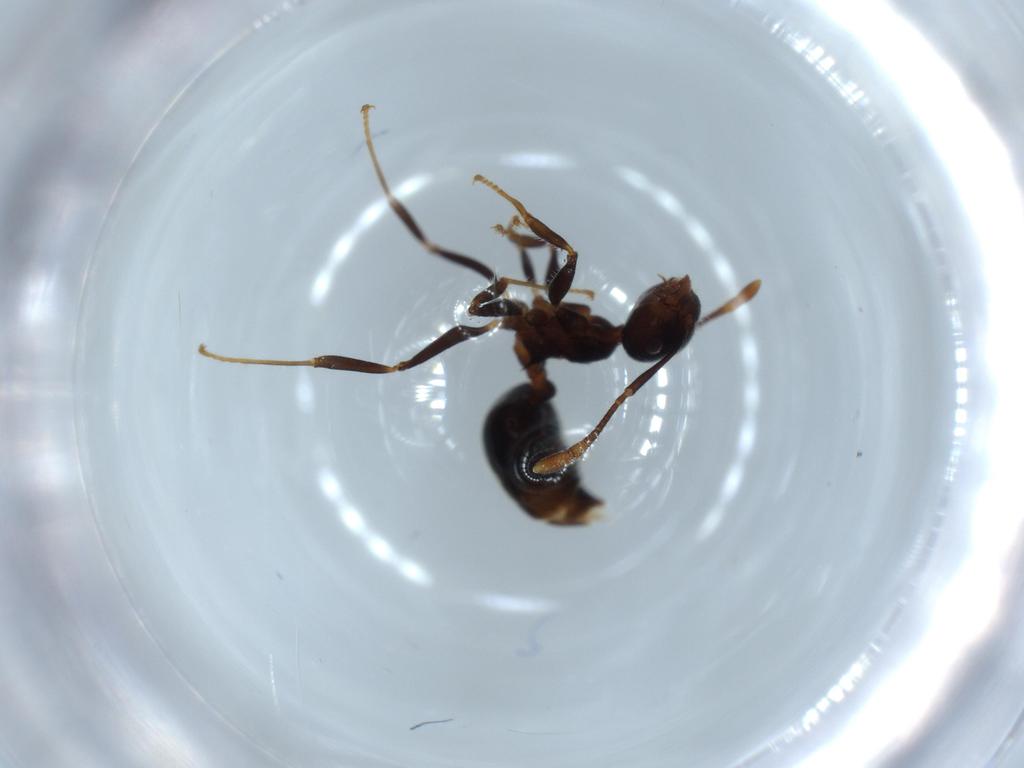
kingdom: Animalia
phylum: Arthropoda
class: Insecta
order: Hymenoptera
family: Formicidae
